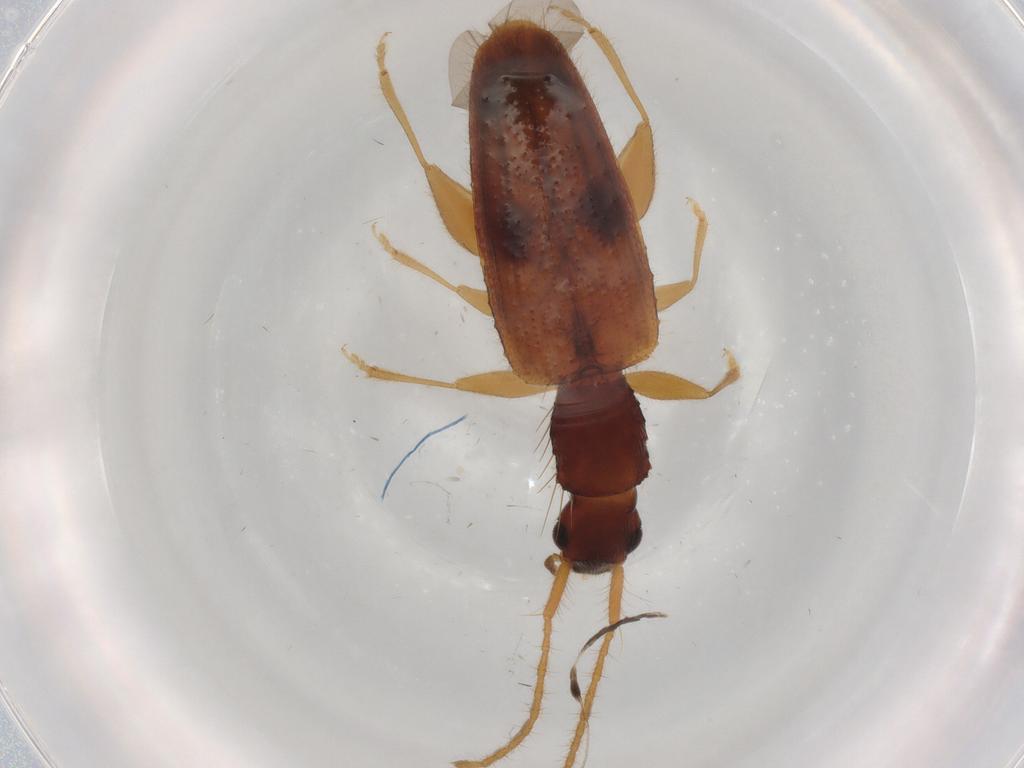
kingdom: Animalia
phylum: Arthropoda
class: Insecta
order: Coleoptera
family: Silvanidae
